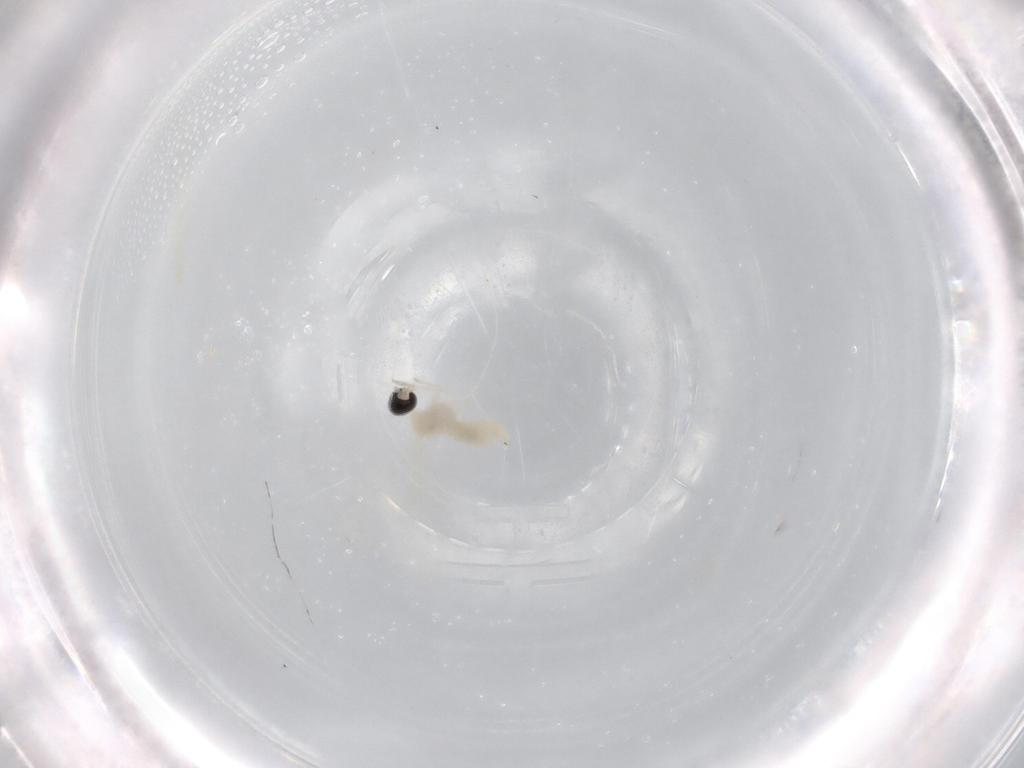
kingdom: Animalia
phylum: Arthropoda
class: Insecta
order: Diptera
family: Cecidomyiidae
